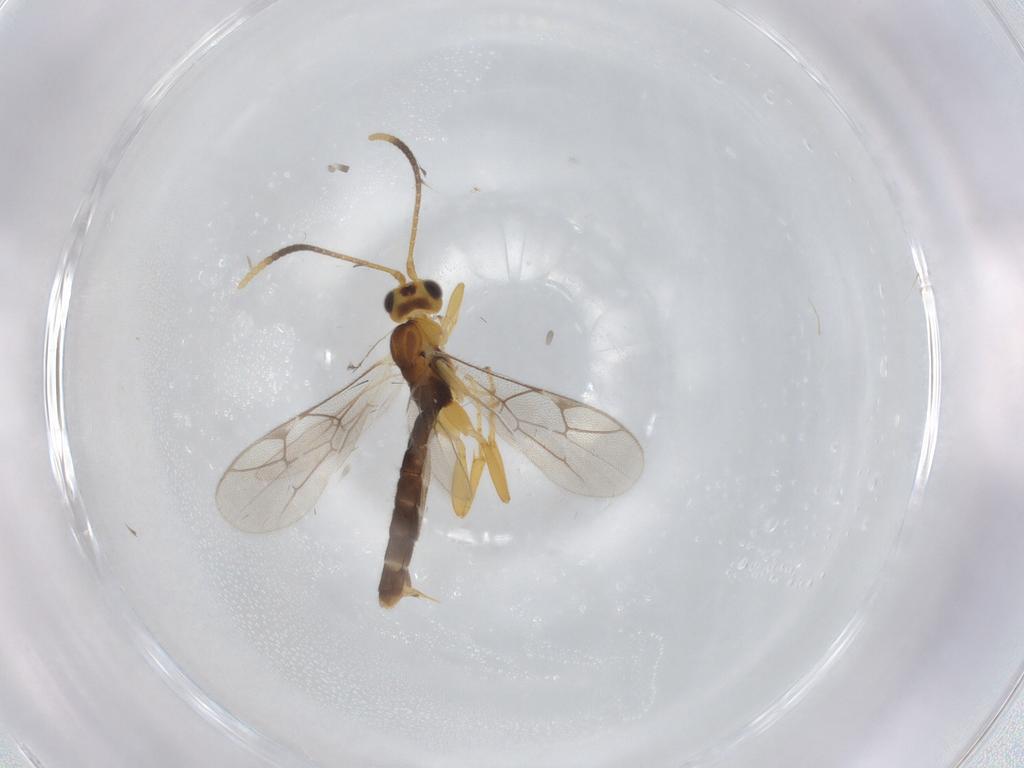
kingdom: Animalia
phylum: Arthropoda
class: Insecta
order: Hymenoptera
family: Ichneumonidae
